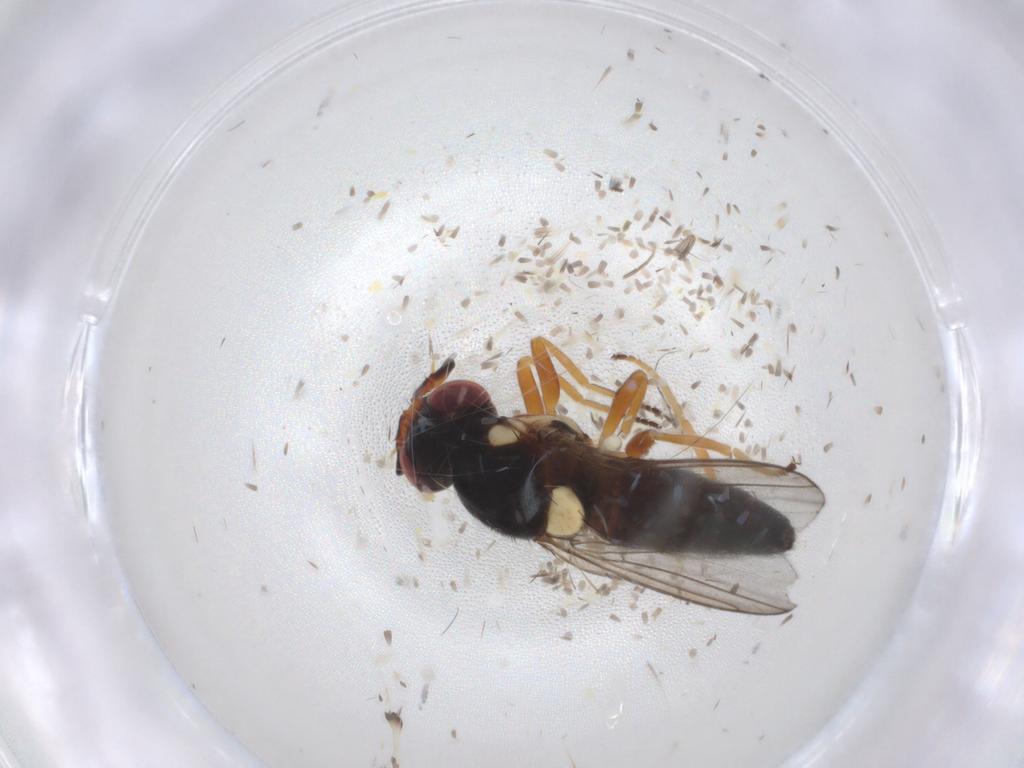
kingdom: Animalia
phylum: Arthropoda
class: Insecta
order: Diptera
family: Chloropidae
